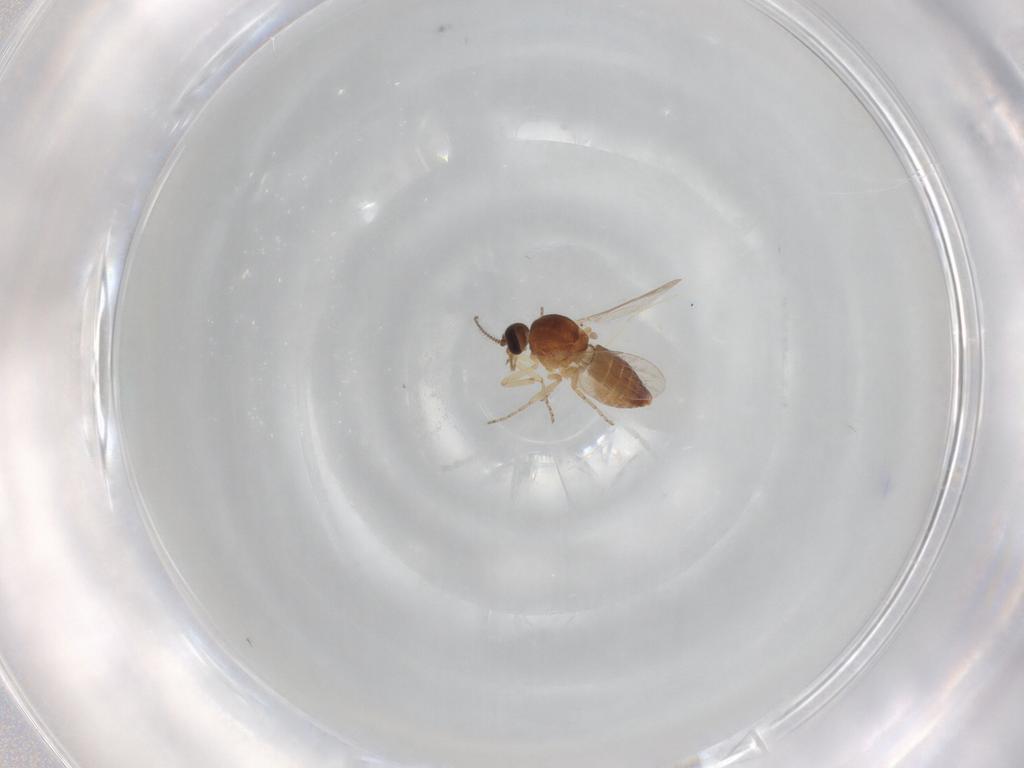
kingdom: Animalia
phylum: Arthropoda
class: Insecta
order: Diptera
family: Ceratopogonidae
